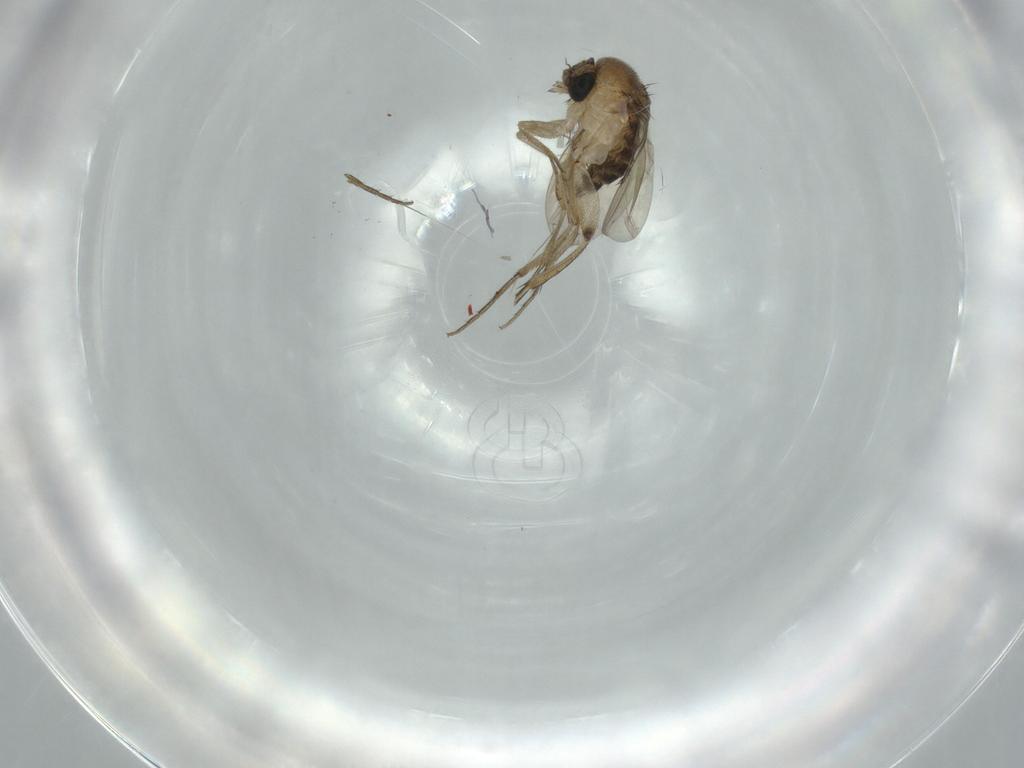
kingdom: Animalia
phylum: Arthropoda
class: Insecta
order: Diptera
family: Phoridae
